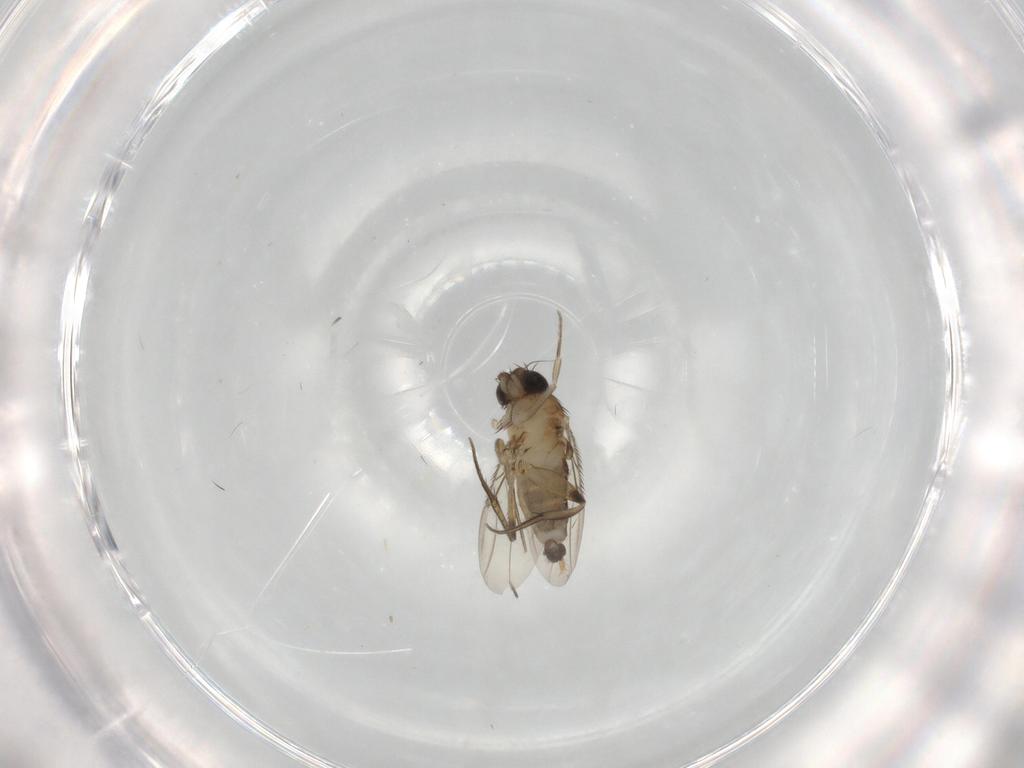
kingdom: Animalia
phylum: Arthropoda
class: Insecta
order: Diptera
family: Phoridae
